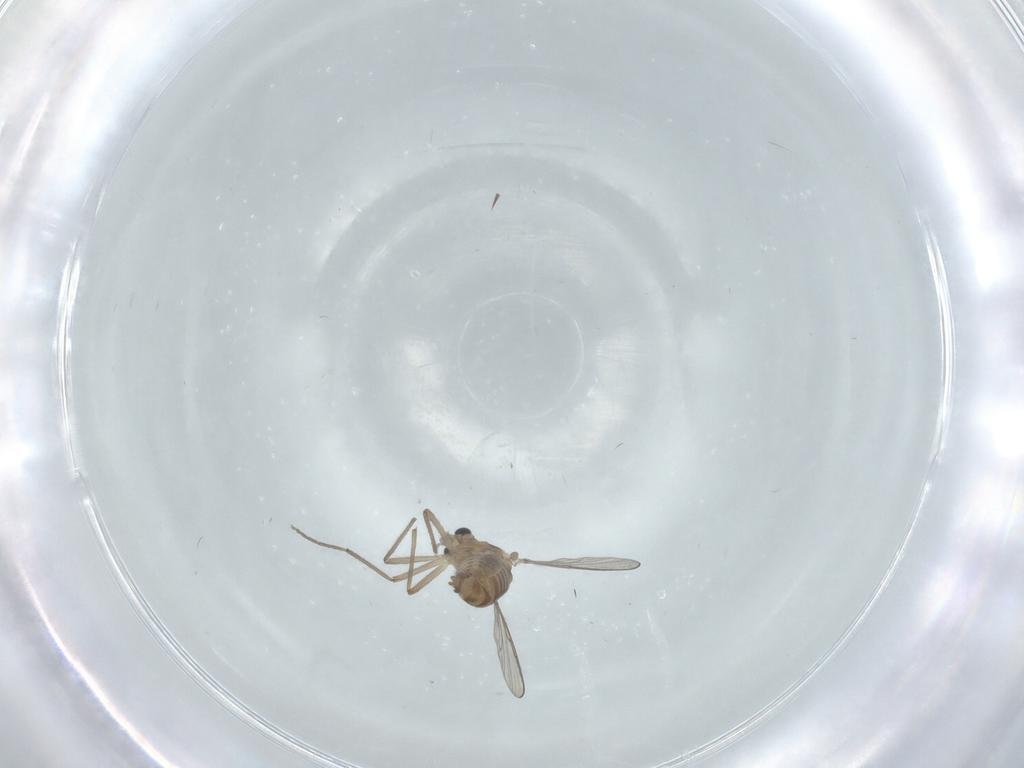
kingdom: Animalia
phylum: Arthropoda
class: Insecta
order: Diptera
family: Chironomidae
